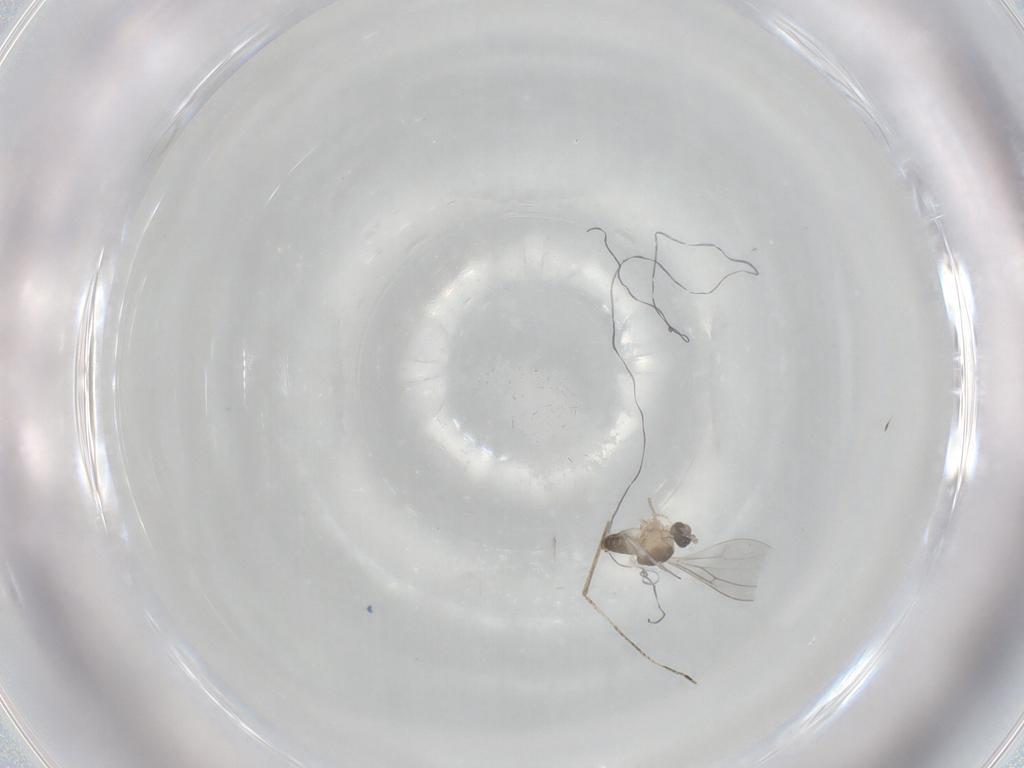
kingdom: Animalia
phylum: Arthropoda
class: Insecta
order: Diptera
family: Cecidomyiidae
